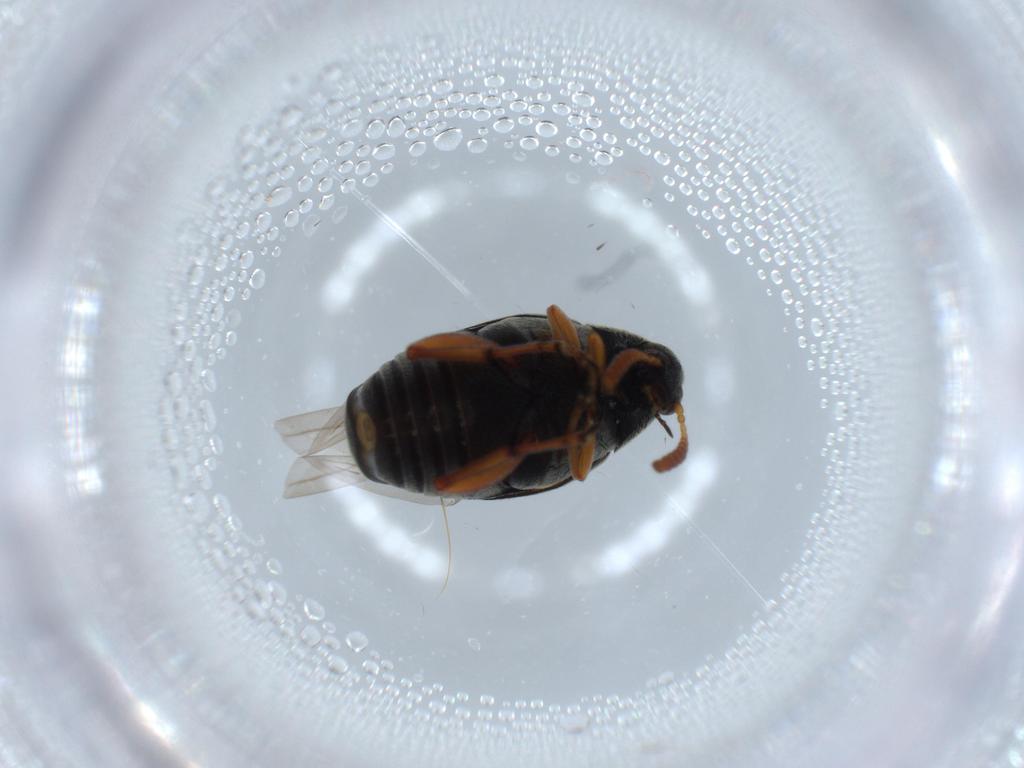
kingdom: Animalia
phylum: Arthropoda
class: Insecta
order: Coleoptera
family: Chrysomelidae
